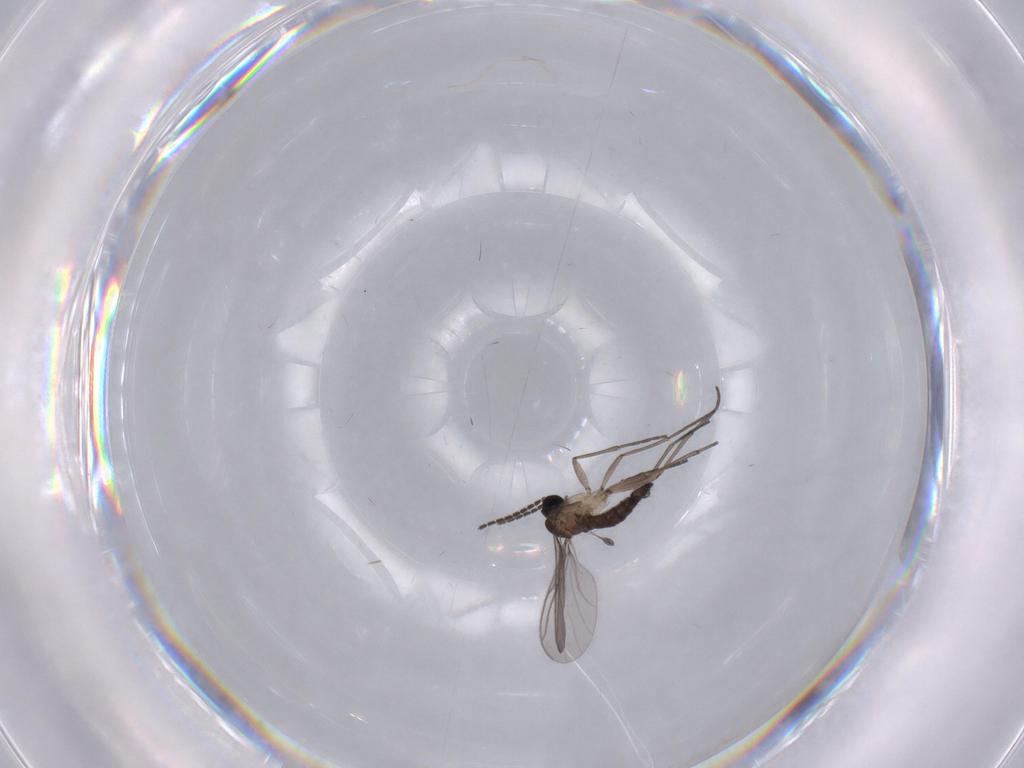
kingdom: Animalia
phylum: Arthropoda
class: Insecta
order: Diptera
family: Sciaridae
